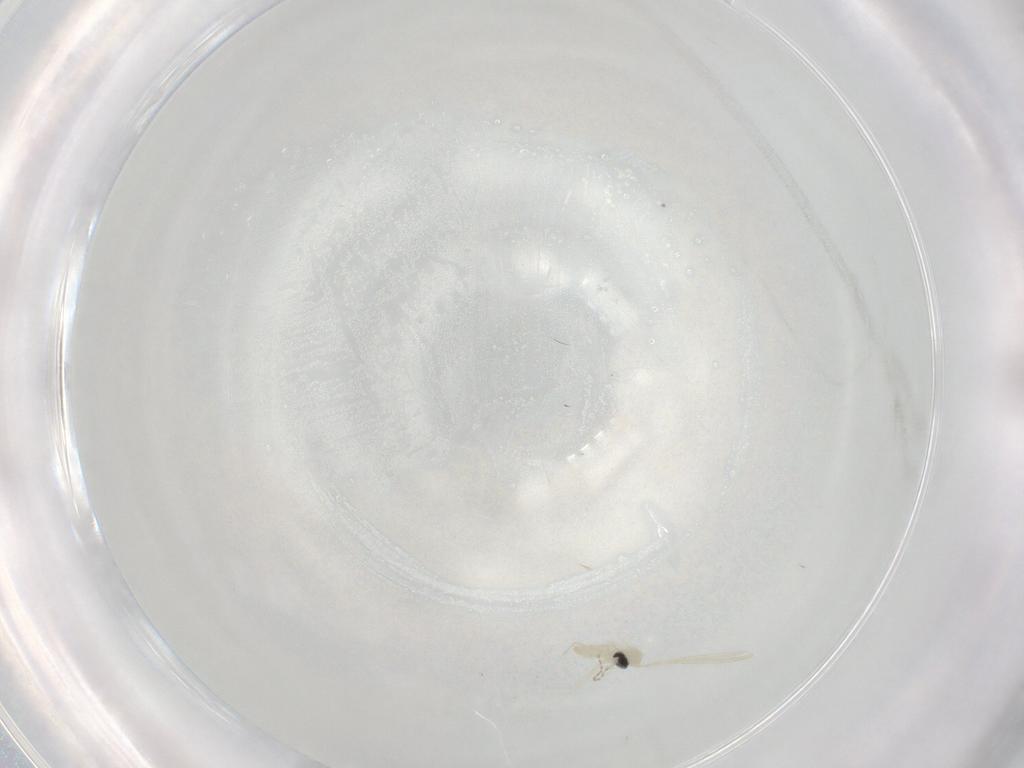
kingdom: Animalia
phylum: Arthropoda
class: Insecta
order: Diptera
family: Cecidomyiidae
